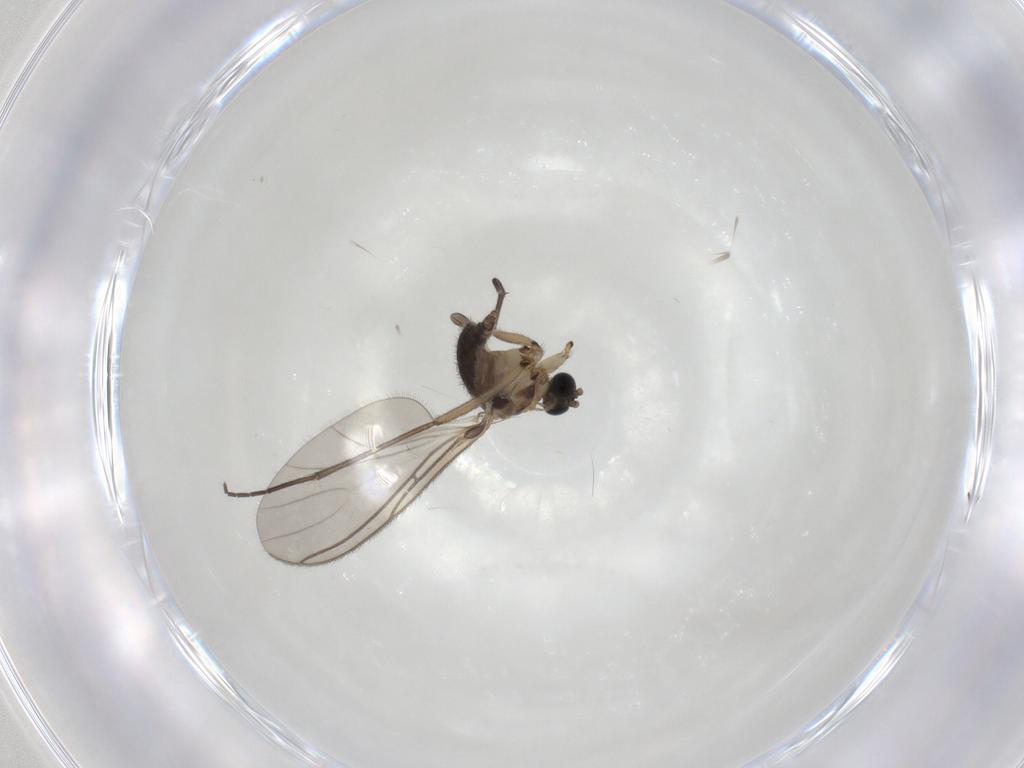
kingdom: Animalia
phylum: Arthropoda
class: Insecta
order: Diptera
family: Sciaridae
